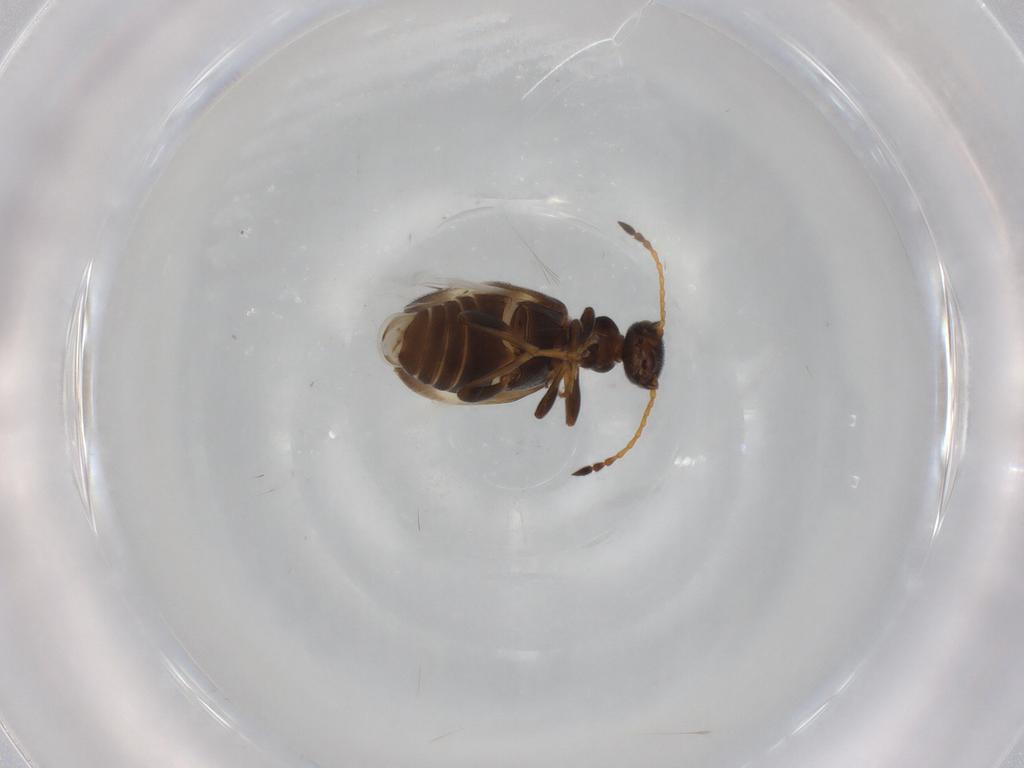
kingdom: Animalia
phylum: Arthropoda
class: Insecta
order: Coleoptera
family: Anthicidae
